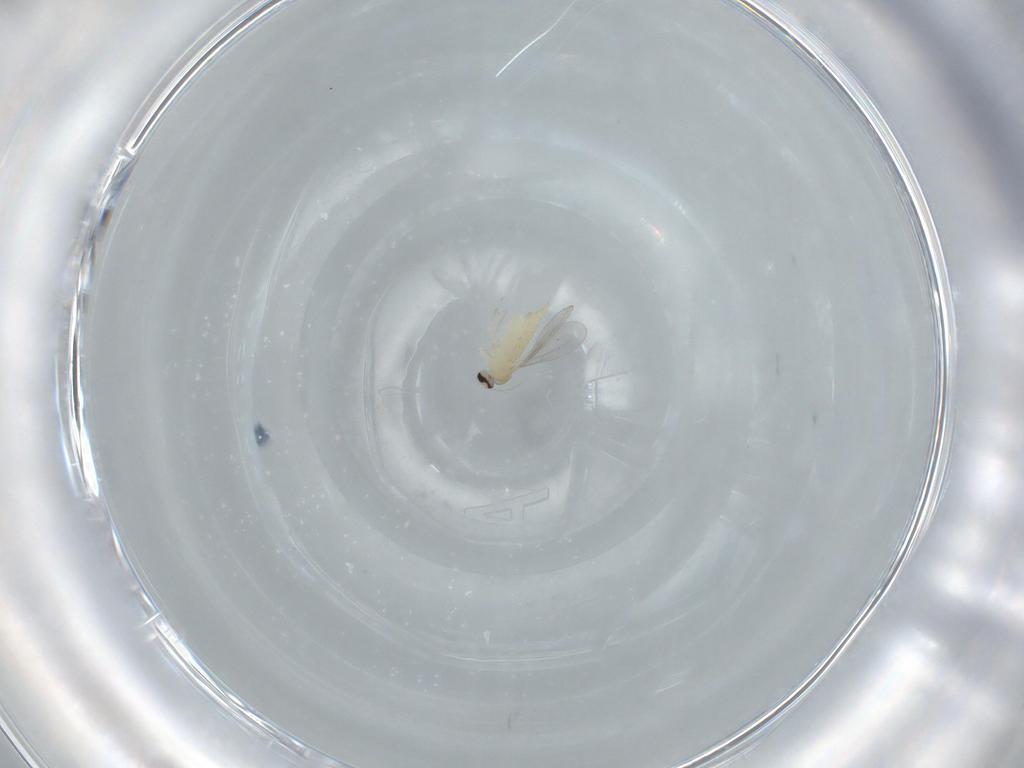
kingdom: Animalia
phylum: Arthropoda
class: Insecta
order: Diptera
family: Cecidomyiidae
